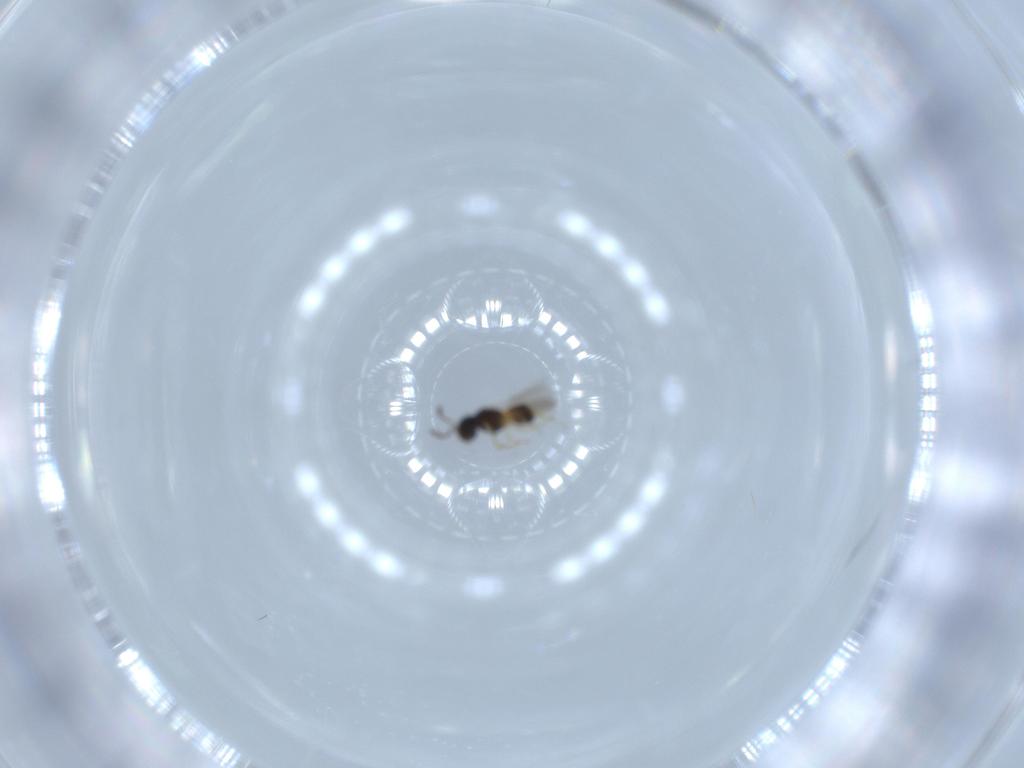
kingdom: Animalia
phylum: Arthropoda
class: Insecta
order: Hymenoptera
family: Scelionidae
